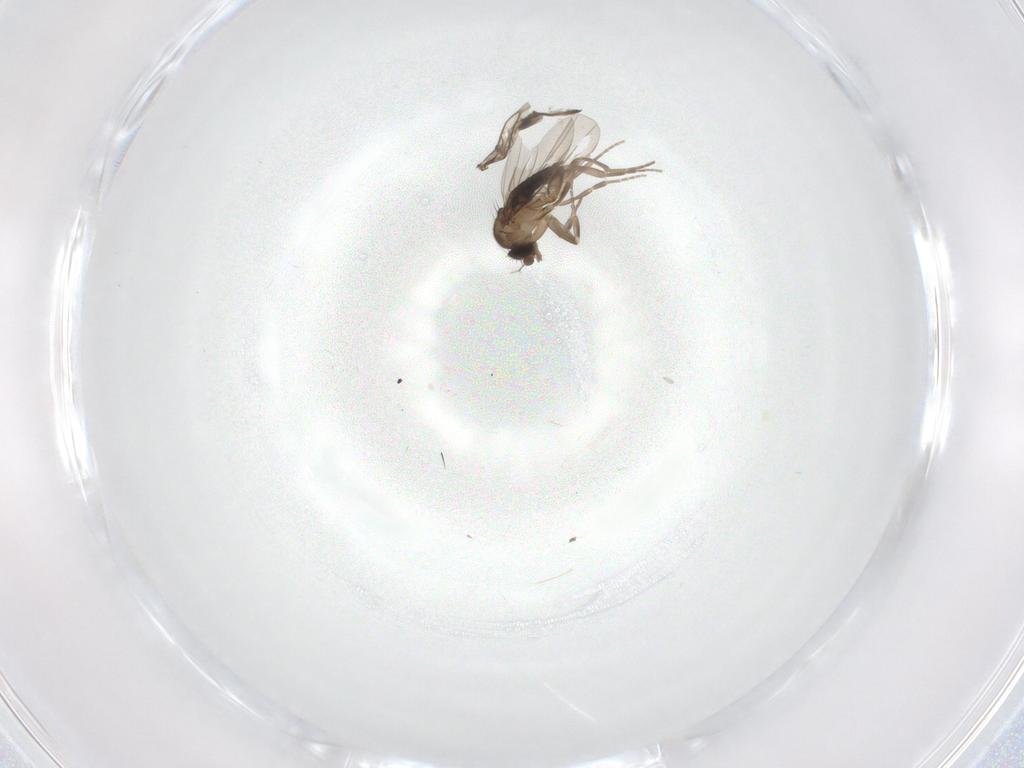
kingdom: Animalia
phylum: Arthropoda
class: Insecta
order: Diptera
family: Phoridae
